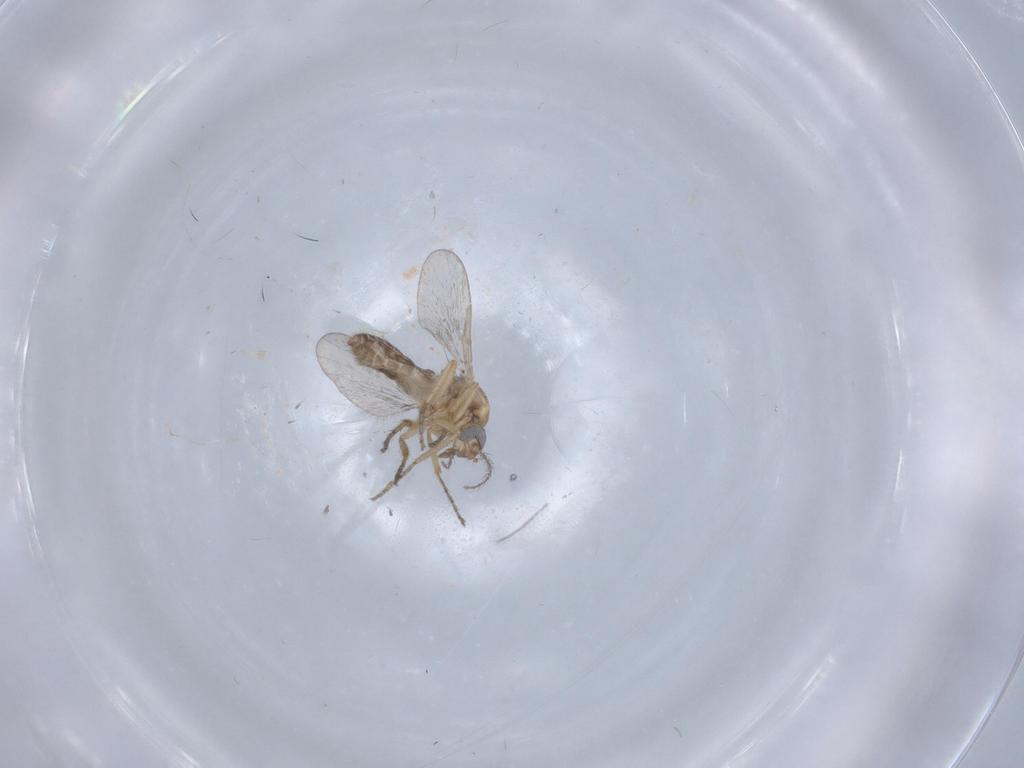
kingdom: Animalia
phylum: Arthropoda
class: Insecta
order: Diptera
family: Ceratopogonidae
